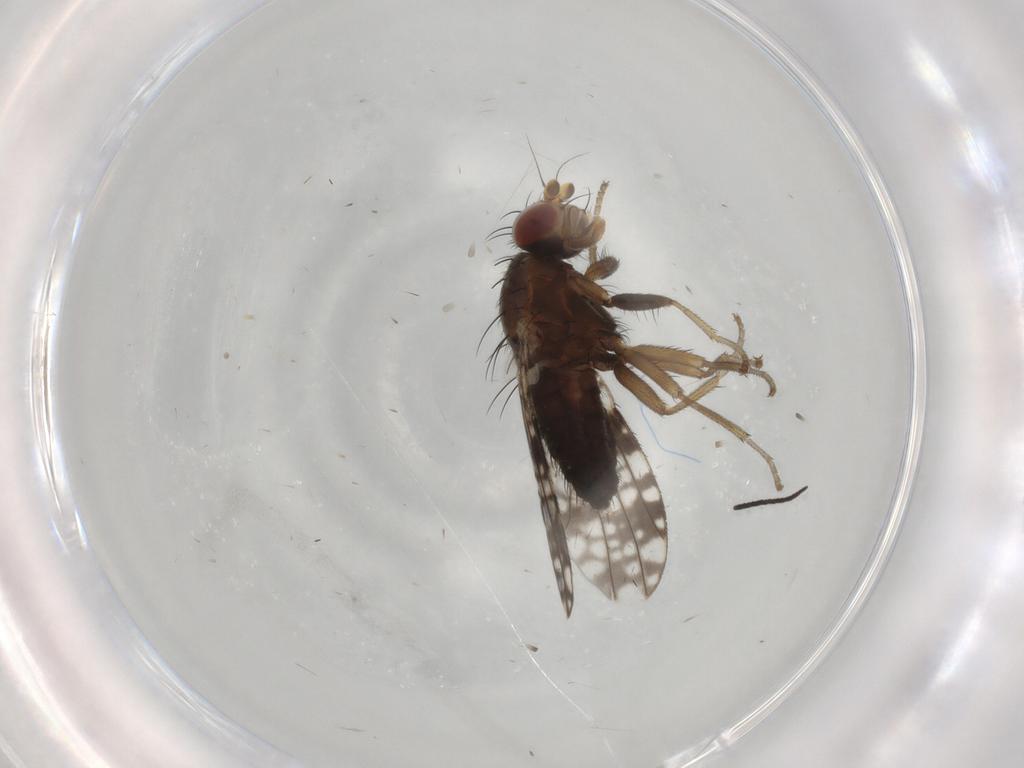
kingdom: Animalia
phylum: Arthropoda
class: Insecta
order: Diptera
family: Tephritidae
